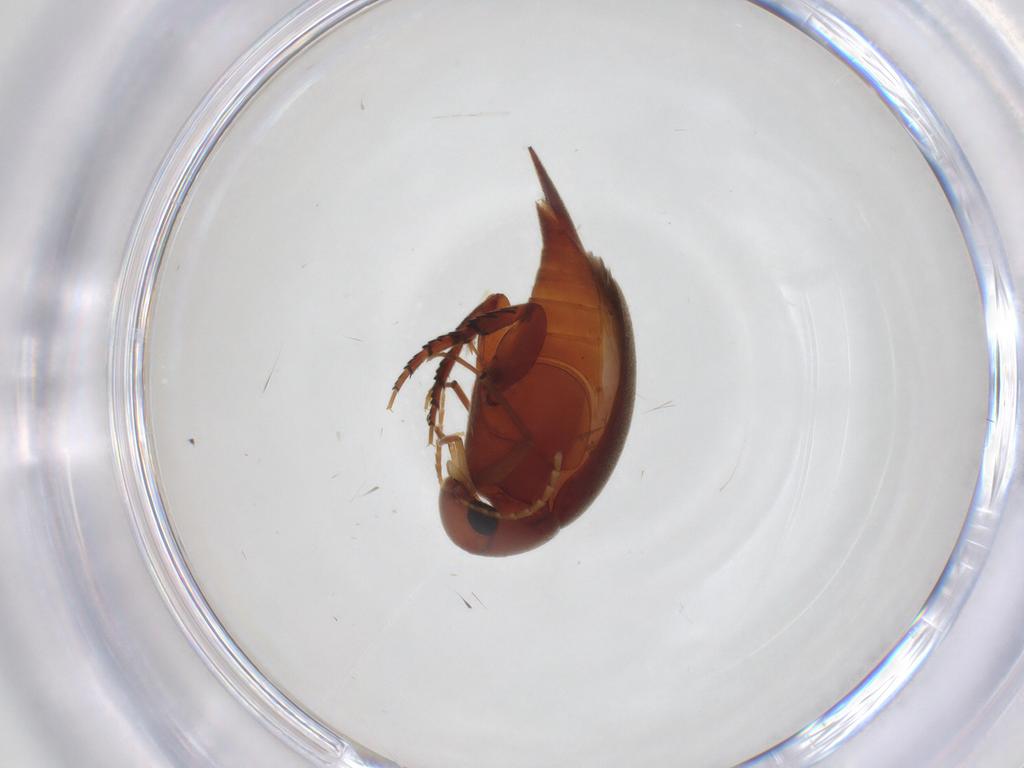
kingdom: Animalia
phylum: Arthropoda
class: Insecta
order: Coleoptera
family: Mordellidae
